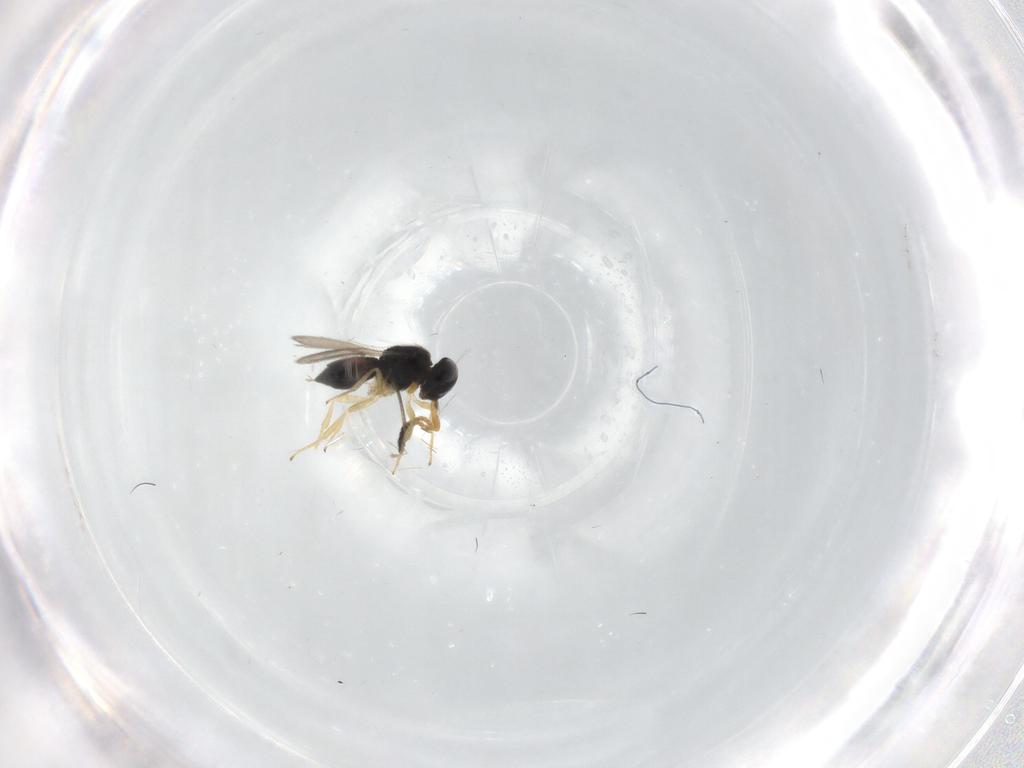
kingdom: Animalia
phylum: Arthropoda
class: Insecta
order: Hymenoptera
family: Scelionidae
